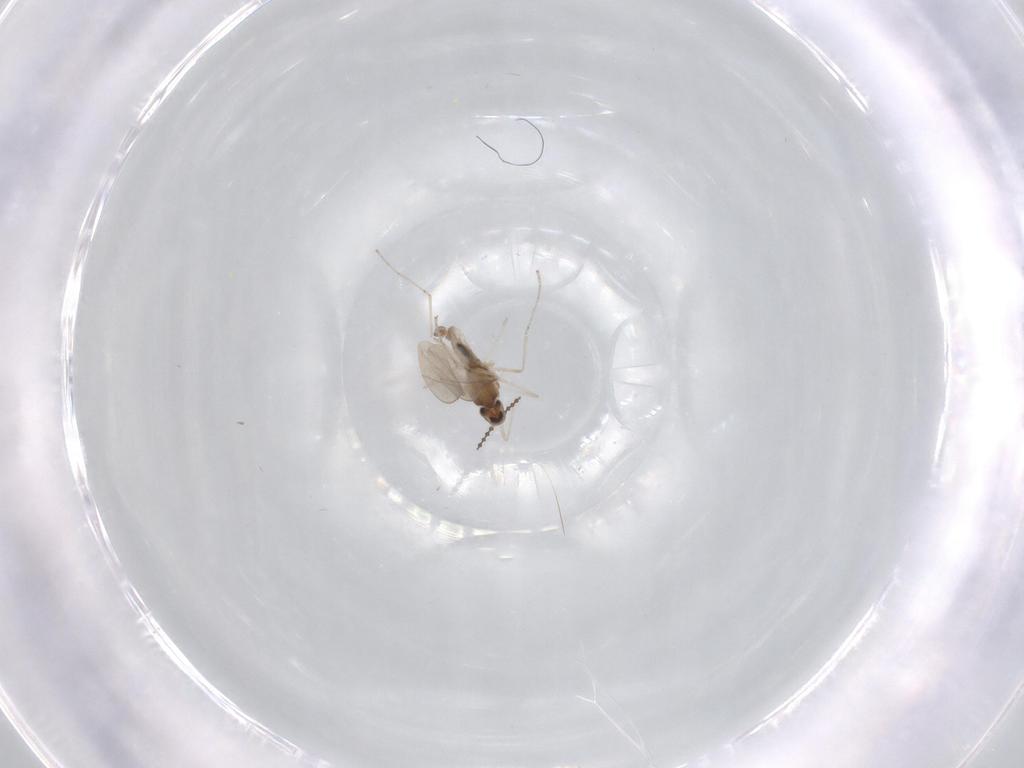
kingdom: Animalia
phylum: Arthropoda
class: Insecta
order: Diptera
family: Cecidomyiidae
